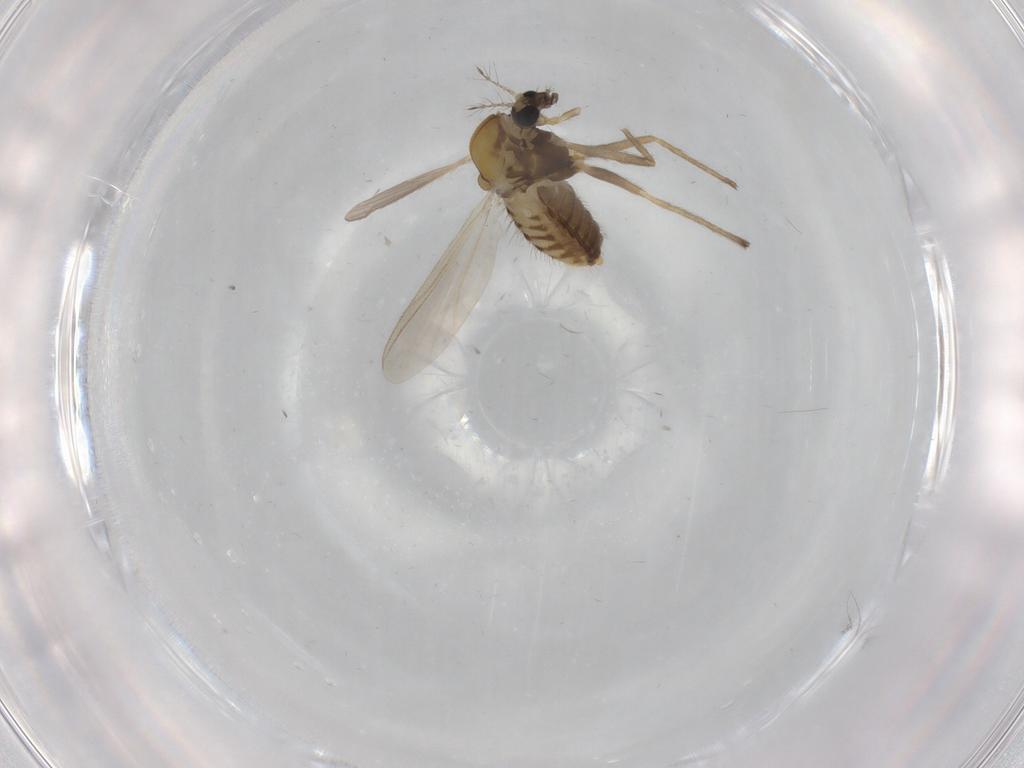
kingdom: Animalia
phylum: Arthropoda
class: Insecta
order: Diptera
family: Chironomidae
